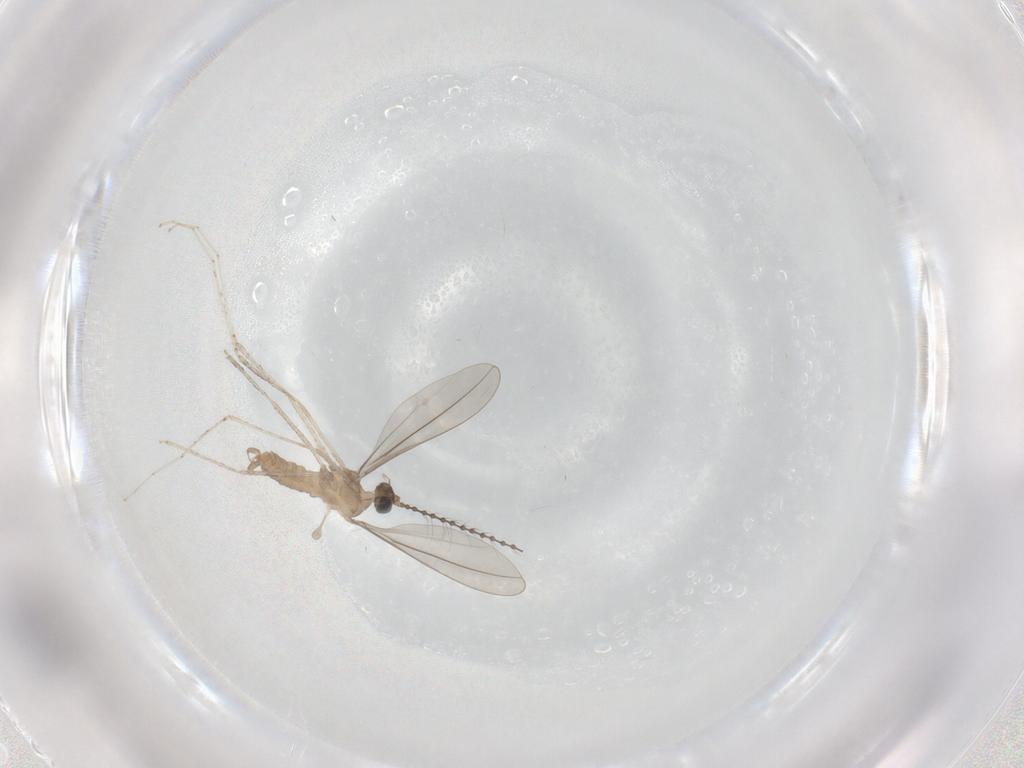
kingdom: Animalia
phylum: Arthropoda
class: Insecta
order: Diptera
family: Cecidomyiidae
